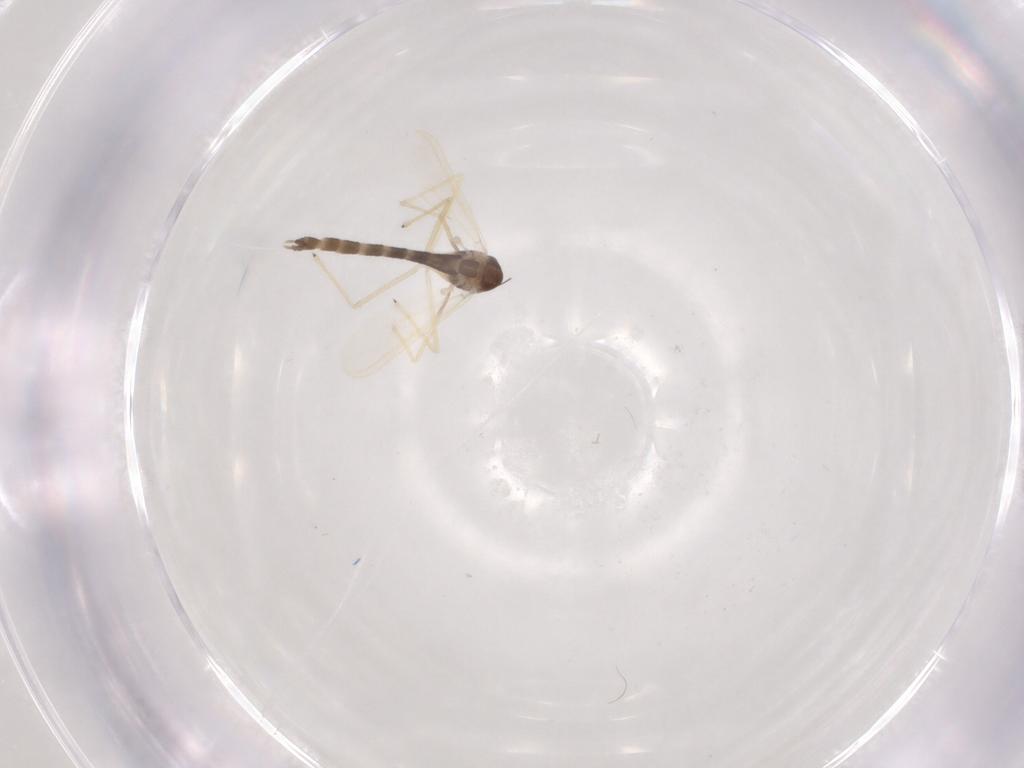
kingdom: Animalia
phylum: Arthropoda
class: Insecta
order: Diptera
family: Chironomidae
